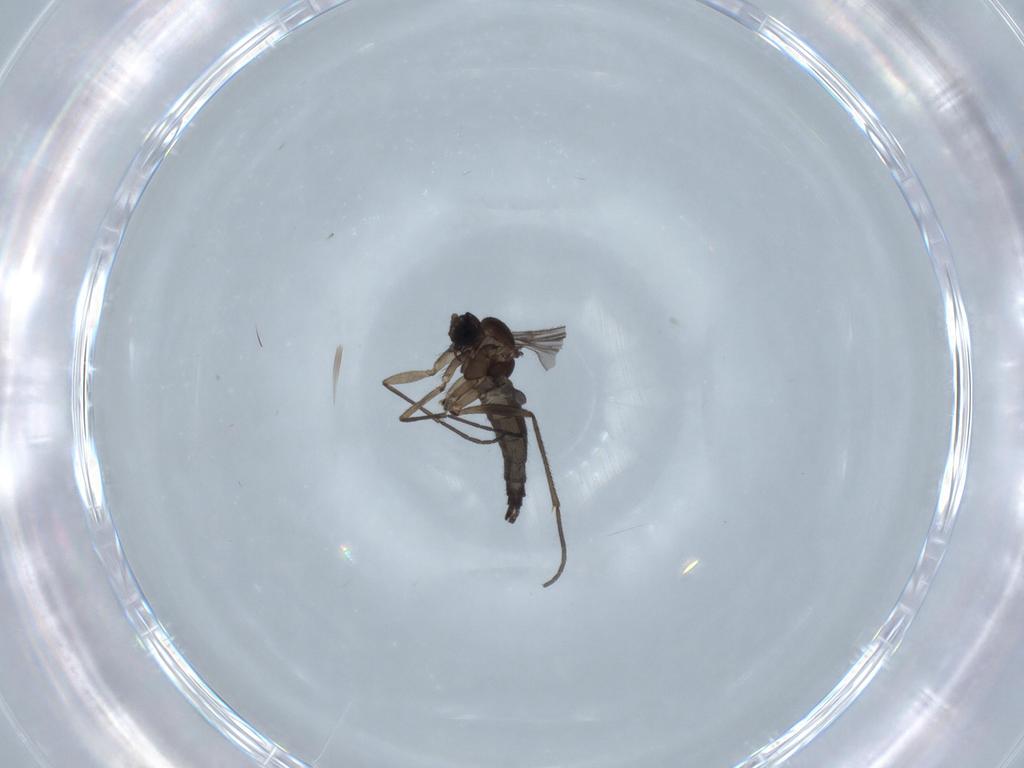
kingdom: Animalia
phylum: Arthropoda
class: Insecta
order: Diptera
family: Sciaridae
